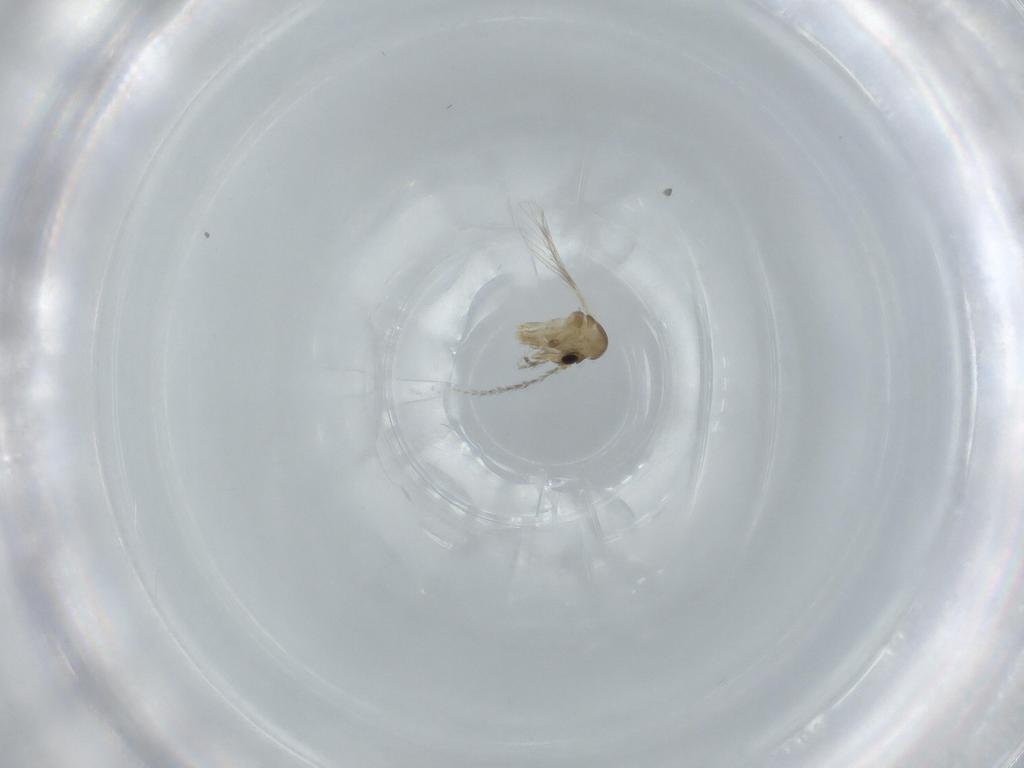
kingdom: Animalia
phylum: Arthropoda
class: Insecta
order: Diptera
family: Psychodidae
